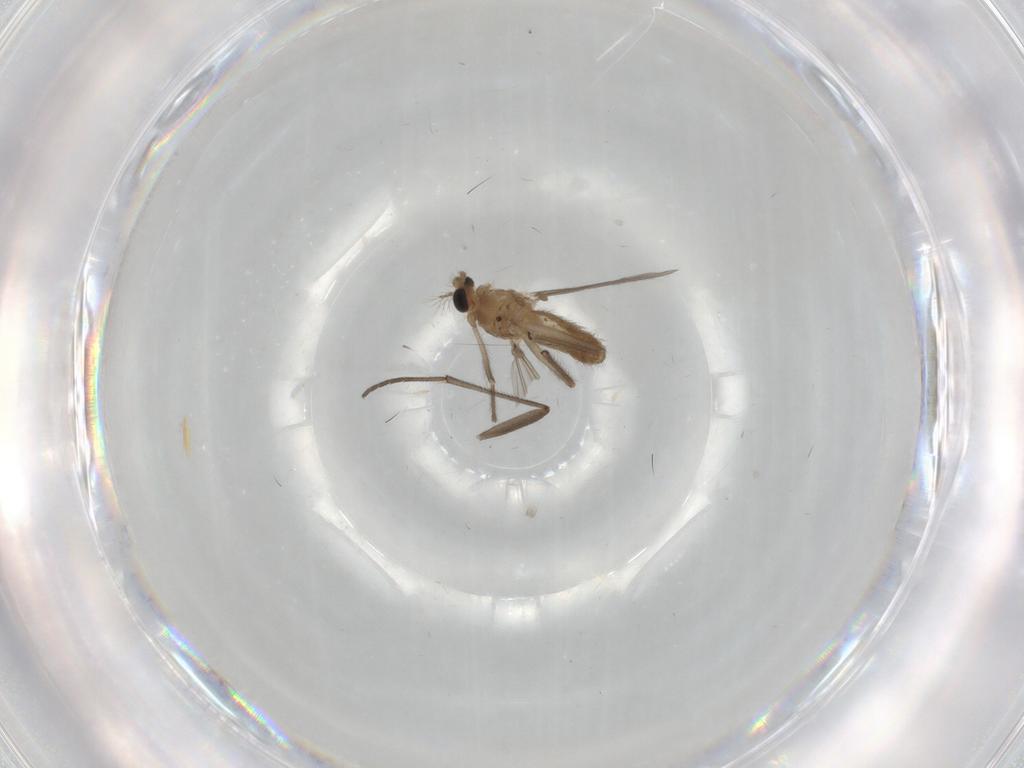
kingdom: Animalia
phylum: Arthropoda
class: Insecta
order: Diptera
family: Chironomidae
